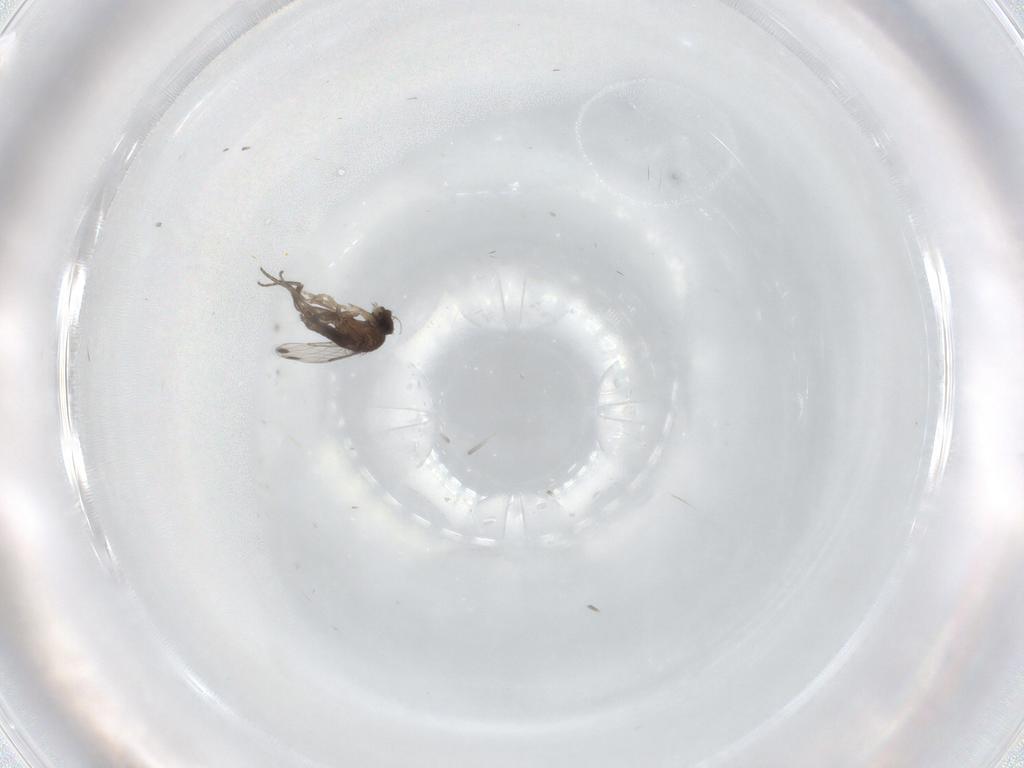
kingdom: Animalia
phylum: Arthropoda
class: Insecta
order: Diptera
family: Phoridae
